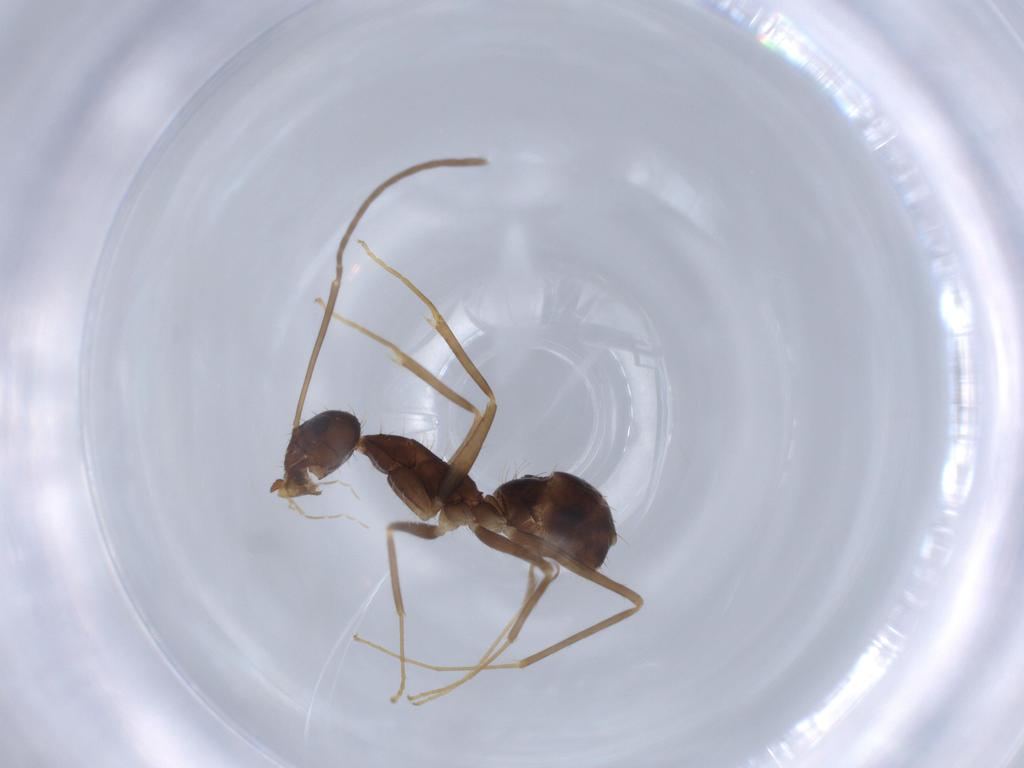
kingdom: Animalia
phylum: Arthropoda
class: Insecta
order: Hymenoptera
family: Formicidae
